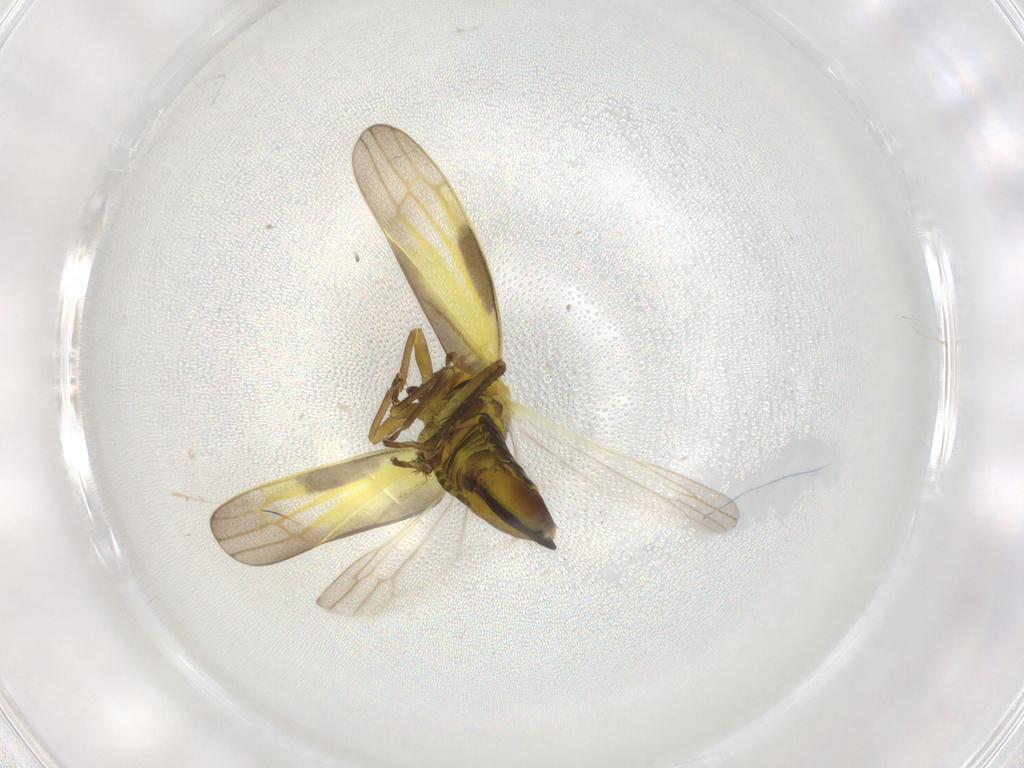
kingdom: Animalia
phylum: Arthropoda
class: Insecta
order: Hemiptera
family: Cicadellidae
